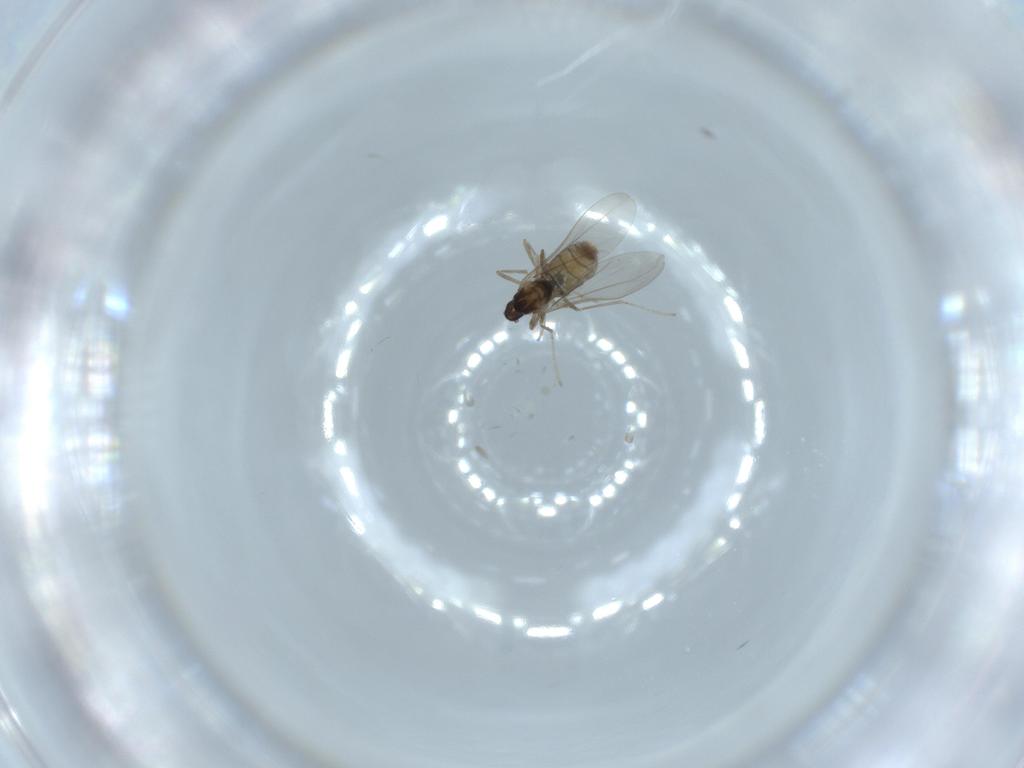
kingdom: Animalia
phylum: Arthropoda
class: Insecta
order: Diptera
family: Cecidomyiidae
